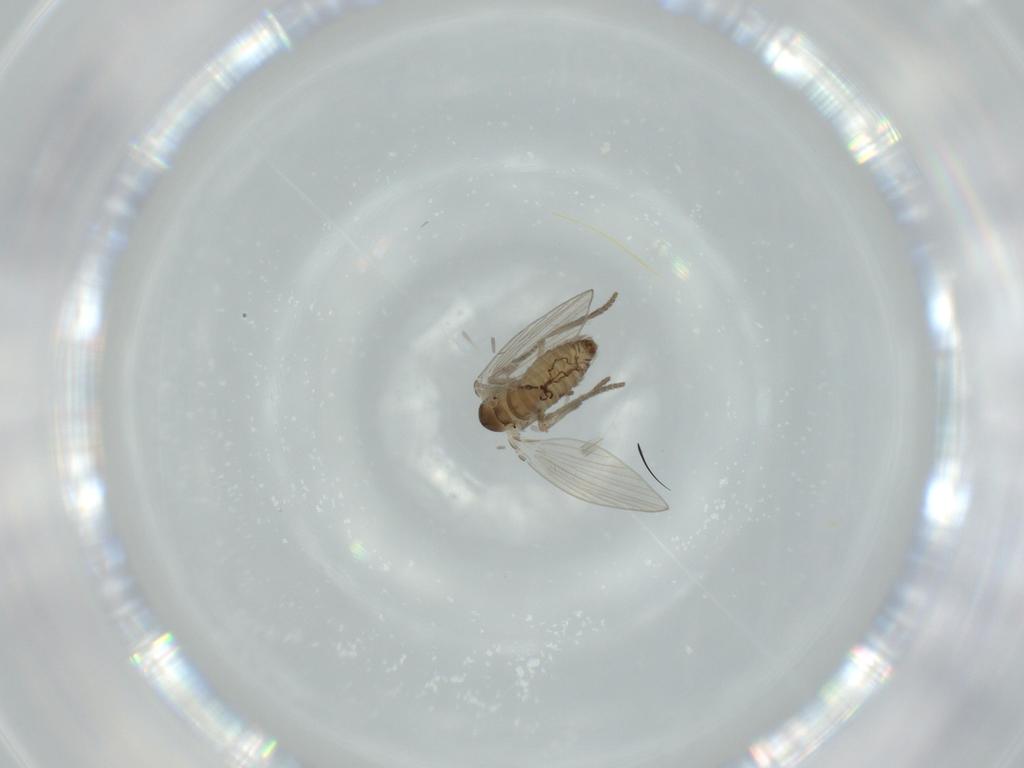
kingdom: Animalia
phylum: Arthropoda
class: Insecta
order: Diptera
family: Psychodidae
